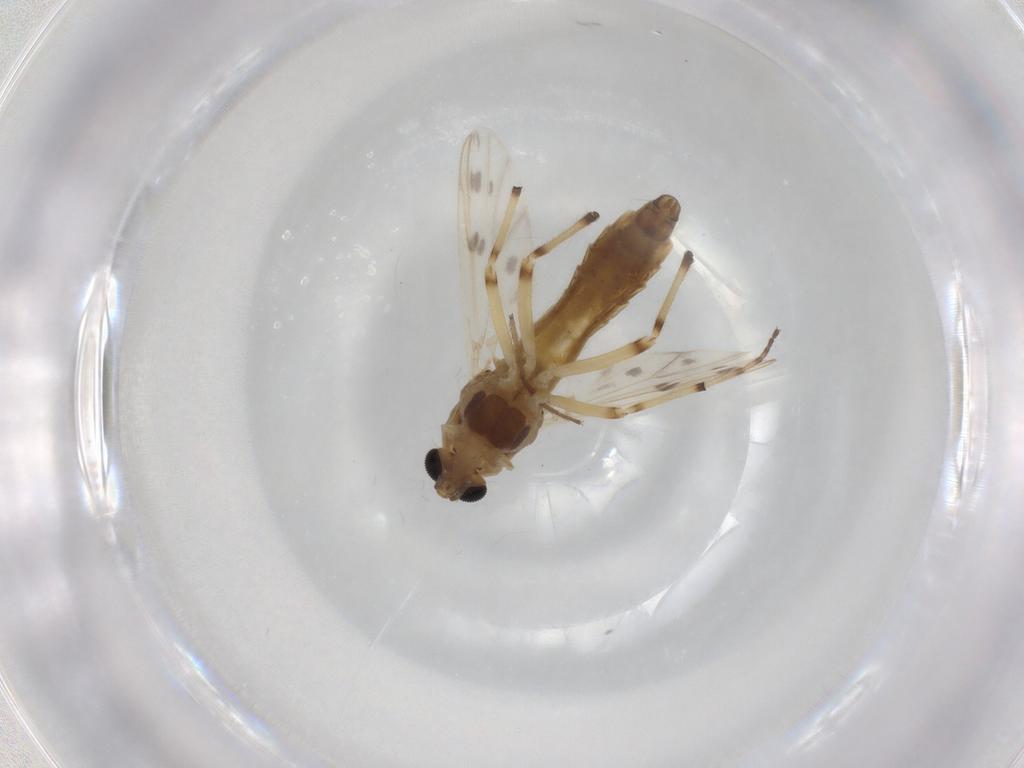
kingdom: Animalia
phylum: Arthropoda
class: Insecta
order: Diptera
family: Chironomidae
